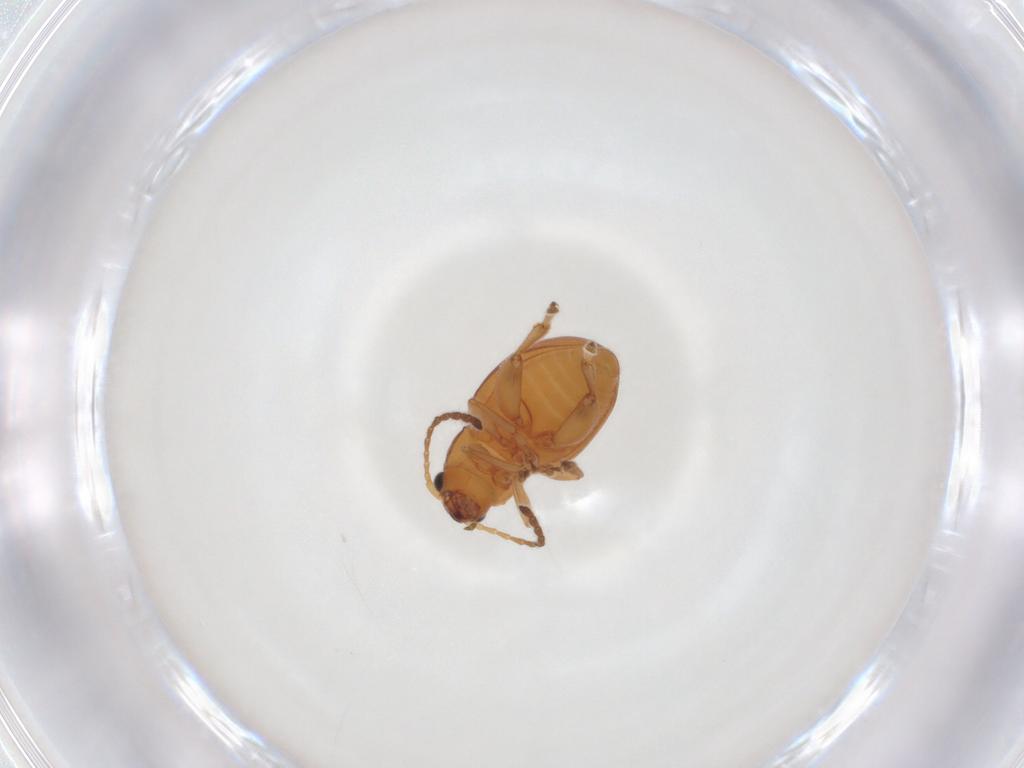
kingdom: Animalia
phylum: Arthropoda
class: Insecta
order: Coleoptera
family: Chrysomelidae
